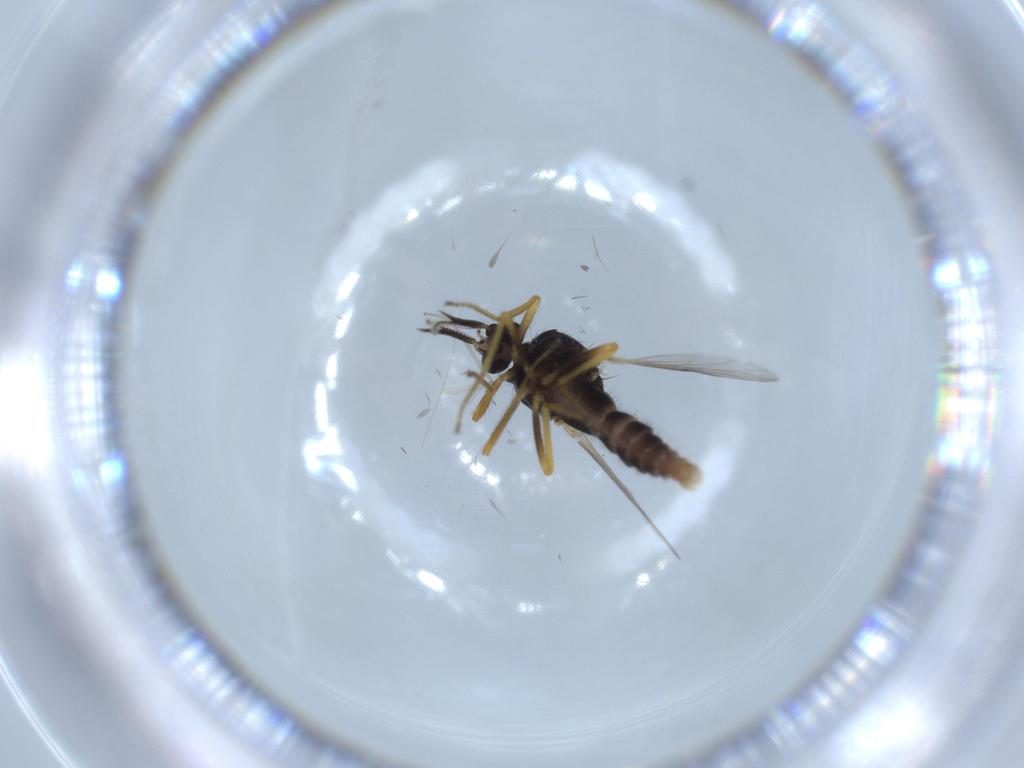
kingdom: Animalia
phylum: Arthropoda
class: Insecta
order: Diptera
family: Ceratopogonidae
